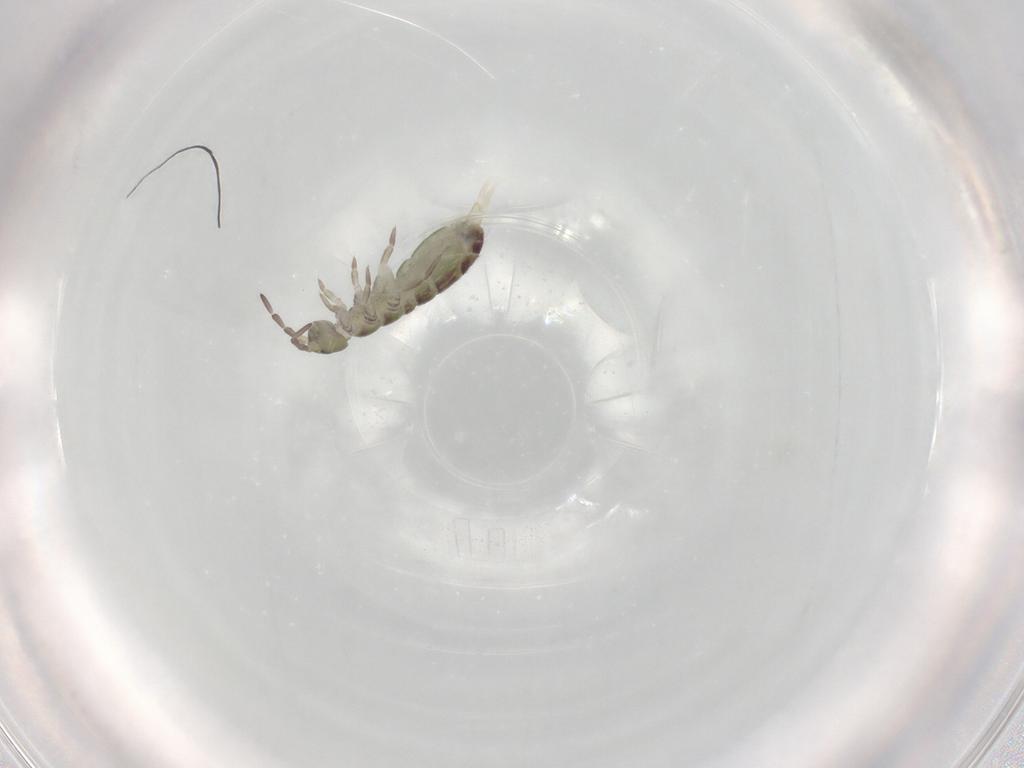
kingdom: Animalia
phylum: Arthropoda
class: Collembola
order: Entomobryomorpha
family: Isotomidae
